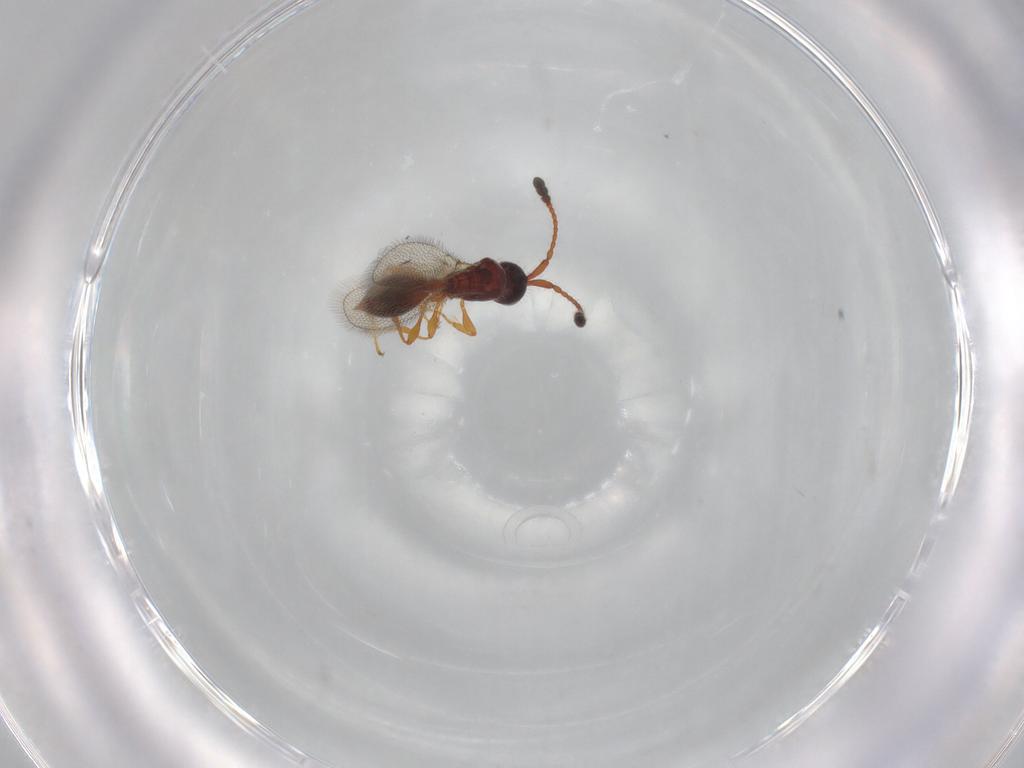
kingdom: Animalia
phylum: Arthropoda
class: Insecta
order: Hymenoptera
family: Diapriidae
